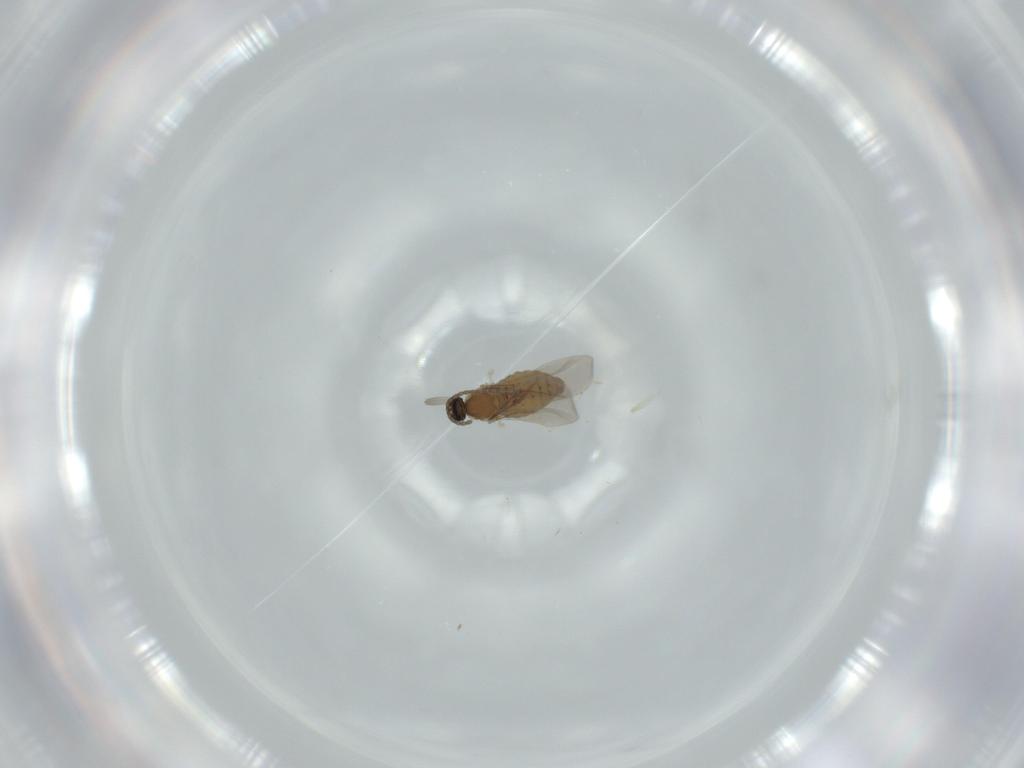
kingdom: Animalia
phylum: Arthropoda
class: Insecta
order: Diptera
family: Cecidomyiidae
